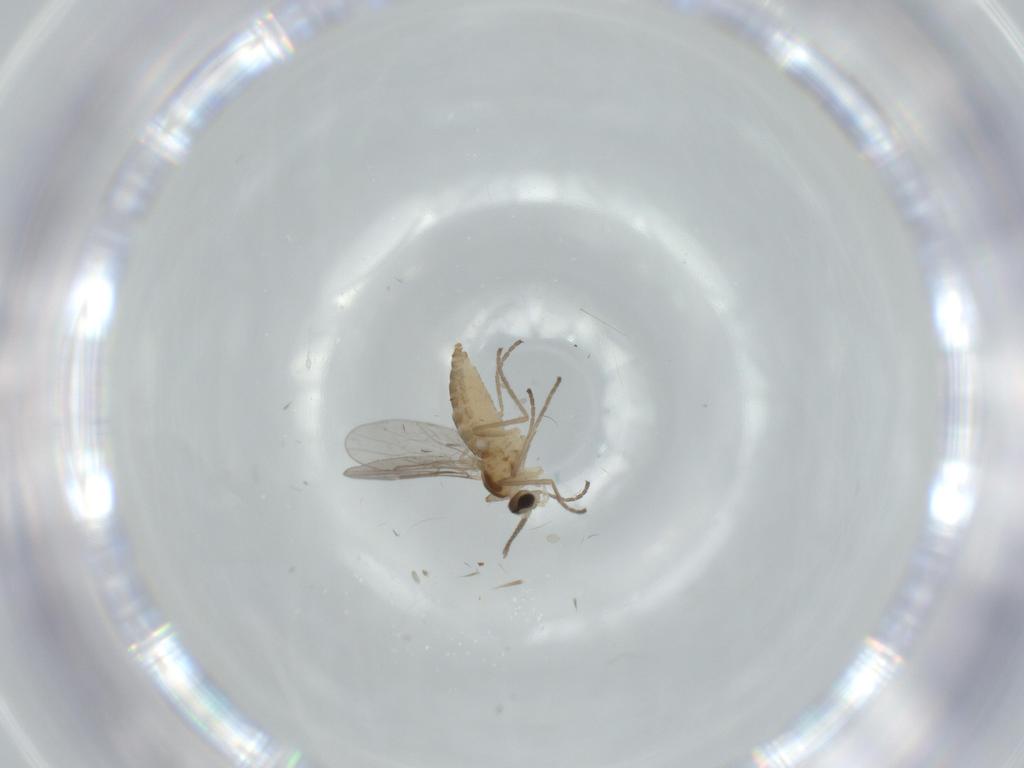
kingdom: Animalia
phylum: Arthropoda
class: Insecta
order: Diptera
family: Cecidomyiidae
